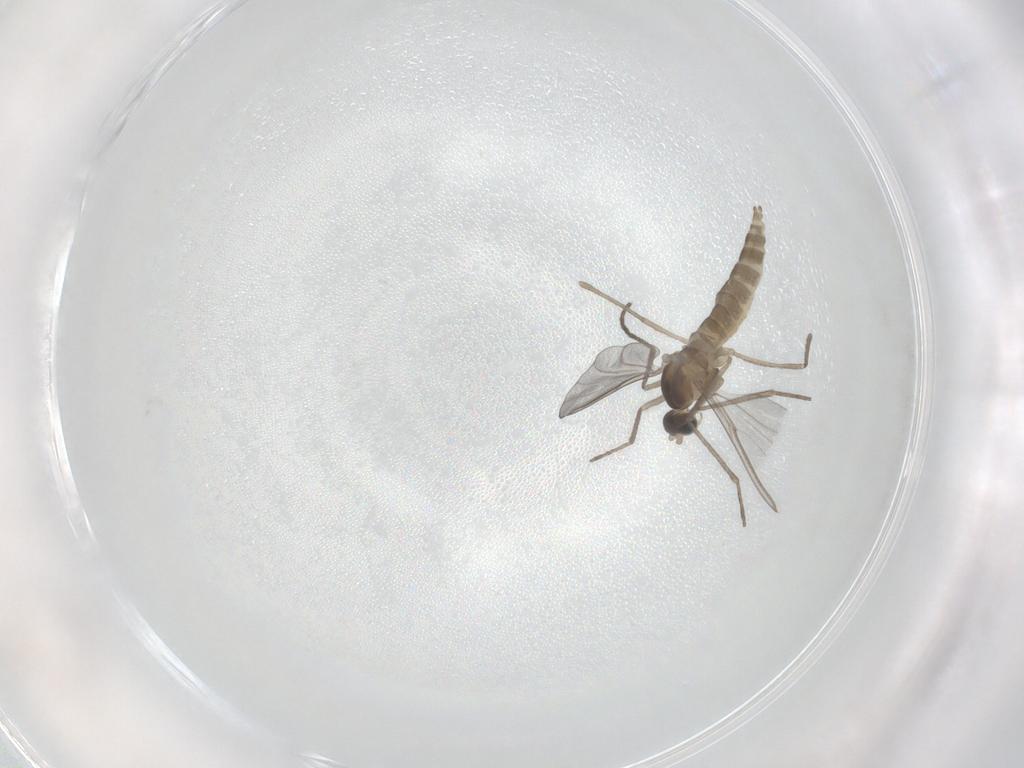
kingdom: Animalia
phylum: Arthropoda
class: Insecta
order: Diptera
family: Cecidomyiidae
